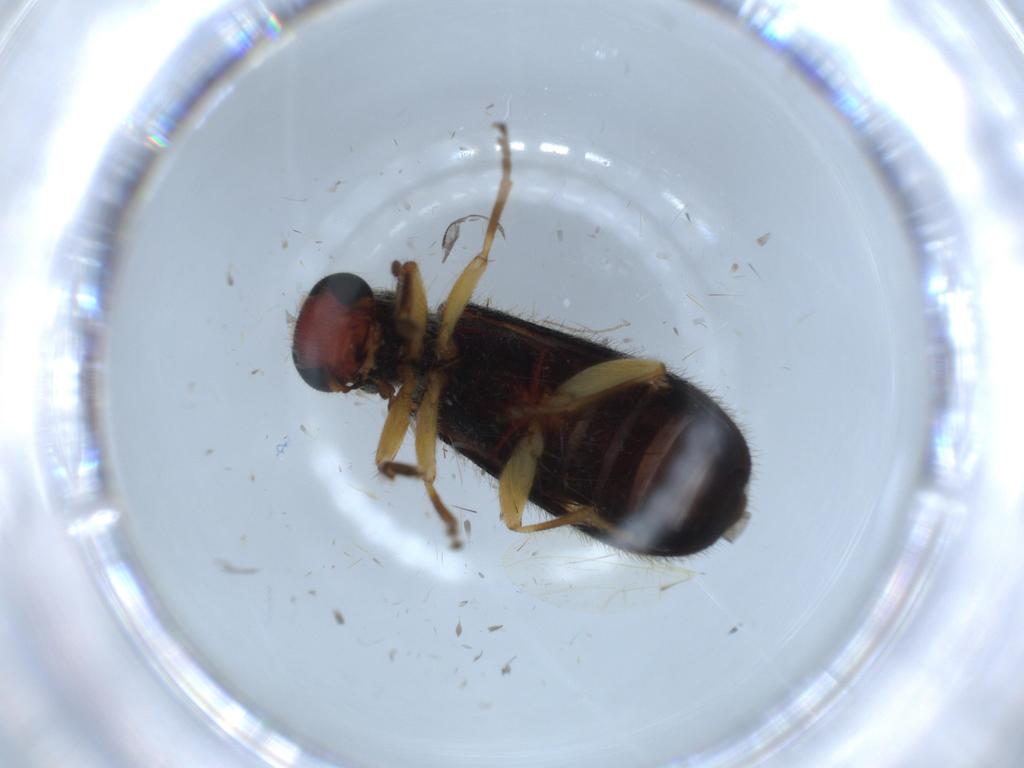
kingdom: Animalia
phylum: Arthropoda
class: Insecta
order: Coleoptera
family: Cleridae
